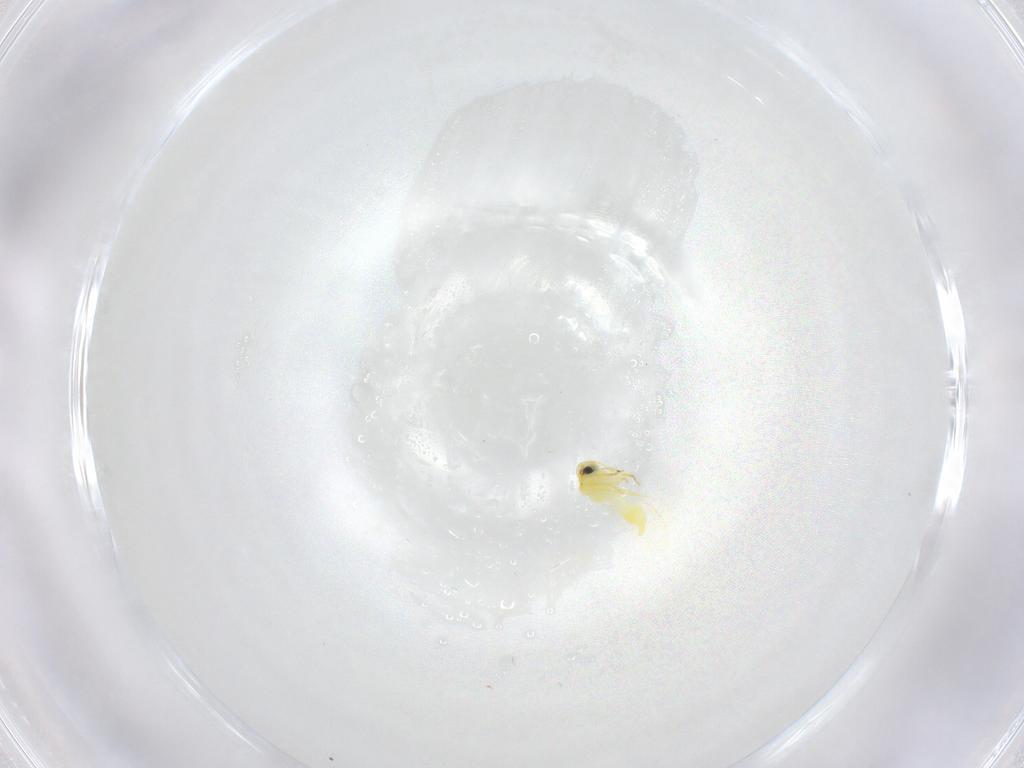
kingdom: Animalia
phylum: Arthropoda
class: Insecta
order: Hemiptera
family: Aleyrodidae
